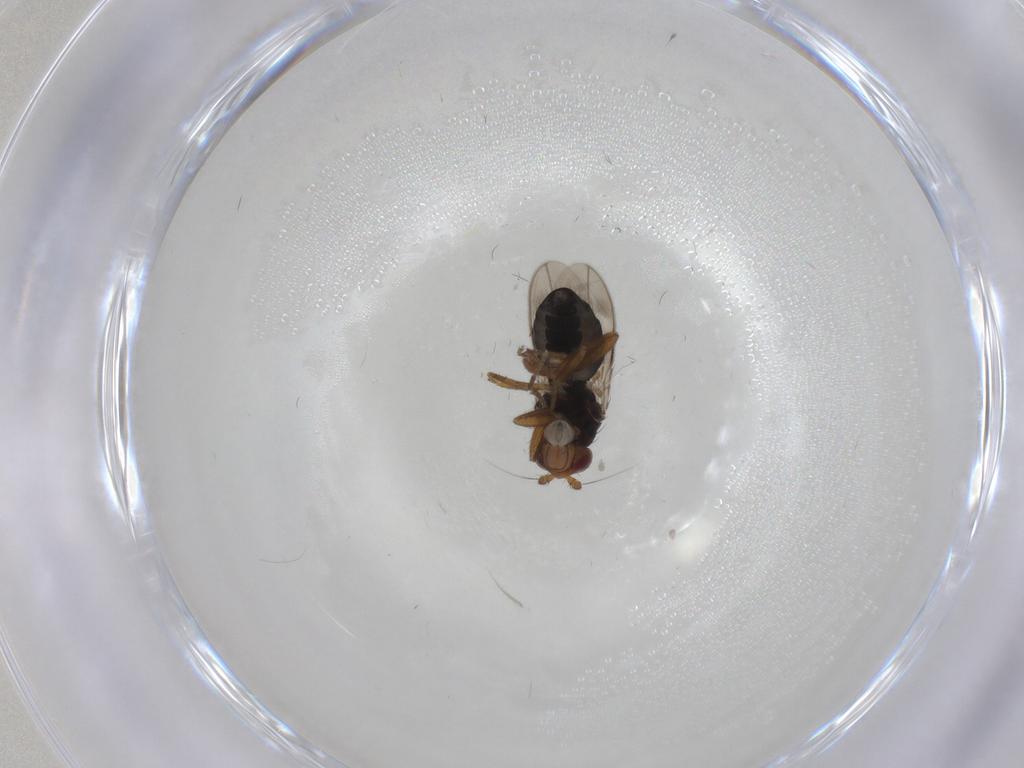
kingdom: Animalia
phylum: Arthropoda
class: Insecta
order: Diptera
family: Sphaeroceridae
